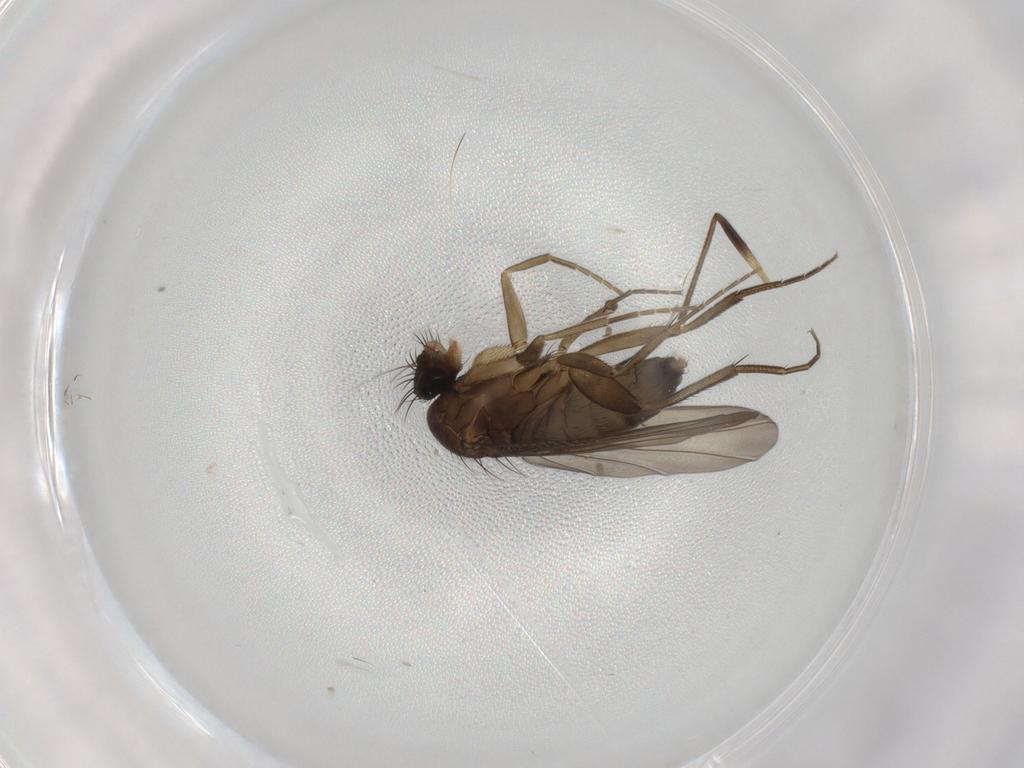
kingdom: Animalia
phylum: Arthropoda
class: Insecta
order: Diptera
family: Phoridae
